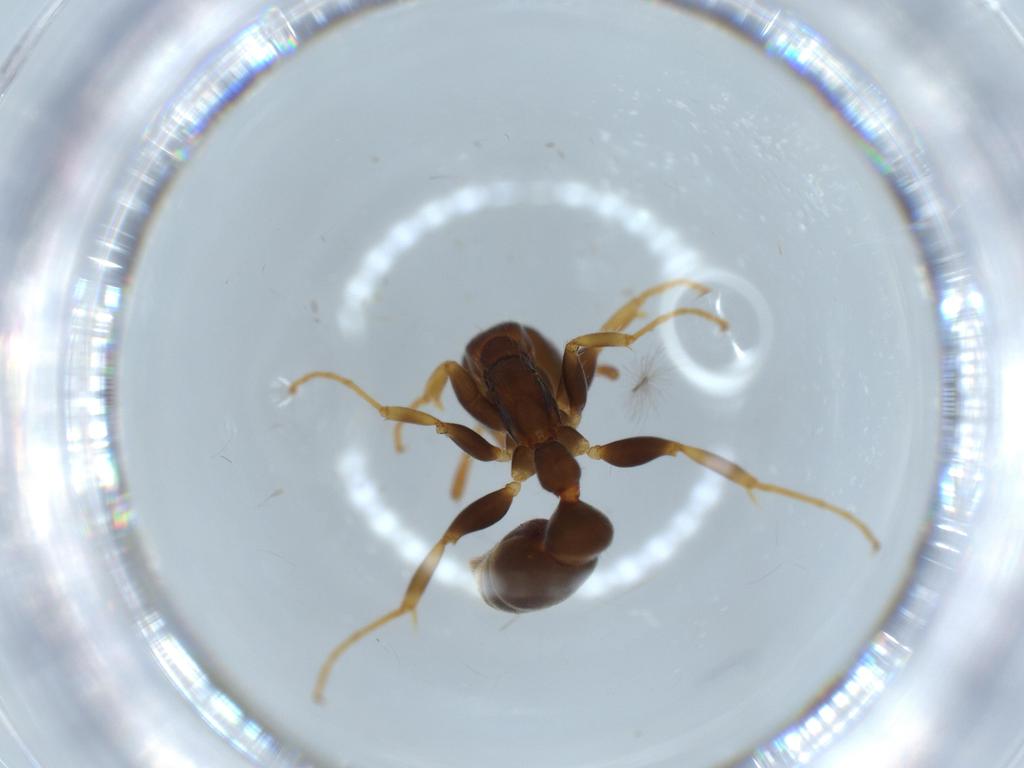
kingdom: Animalia
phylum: Arthropoda
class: Insecta
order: Hymenoptera
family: Formicidae
